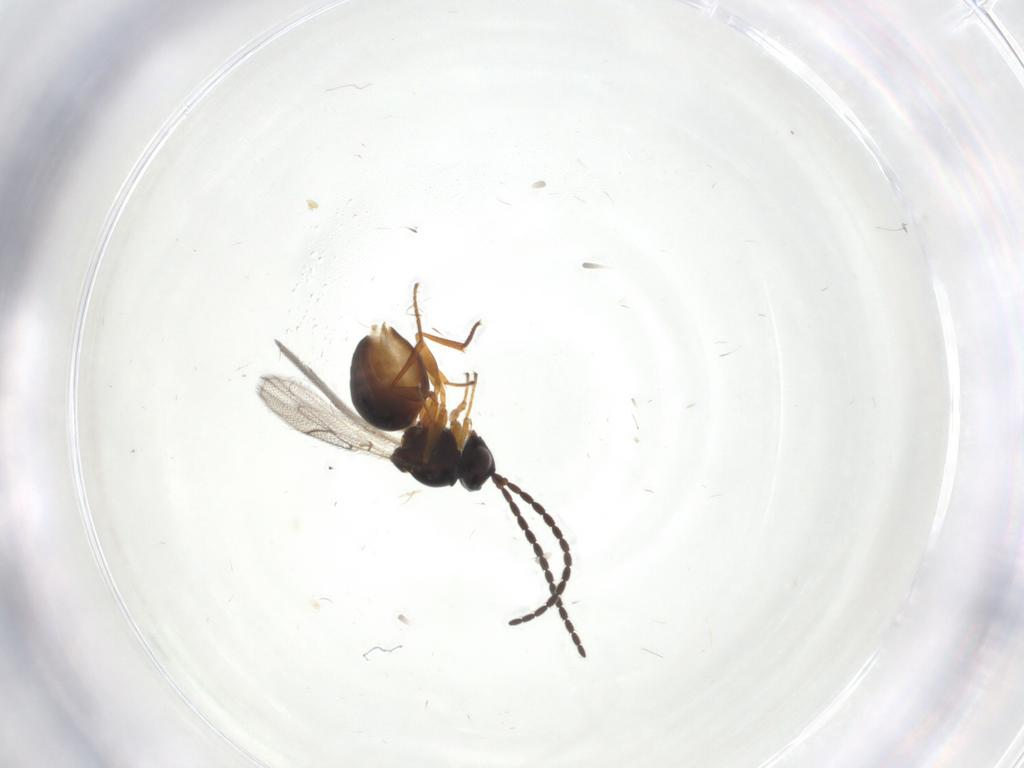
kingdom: Animalia
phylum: Arthropoda
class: Insecta
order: Hymenoptera
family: Figitidae
